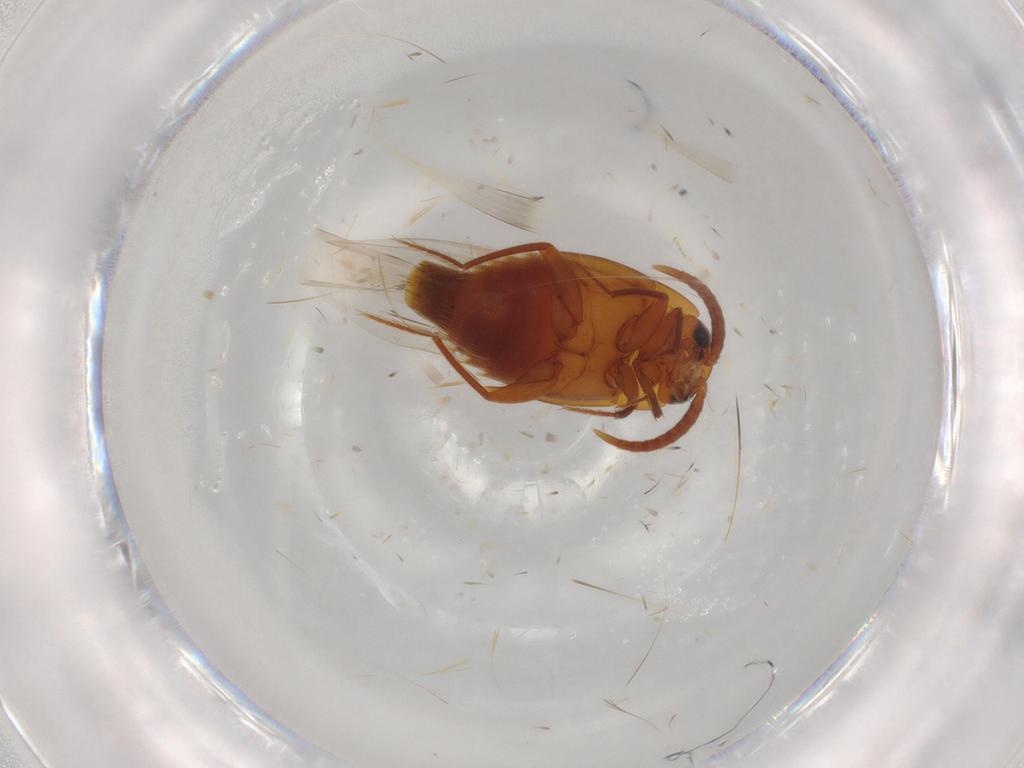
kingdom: Animalia
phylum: Arthropoda
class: Insecta
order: Coleoptera
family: Staphylinidae
